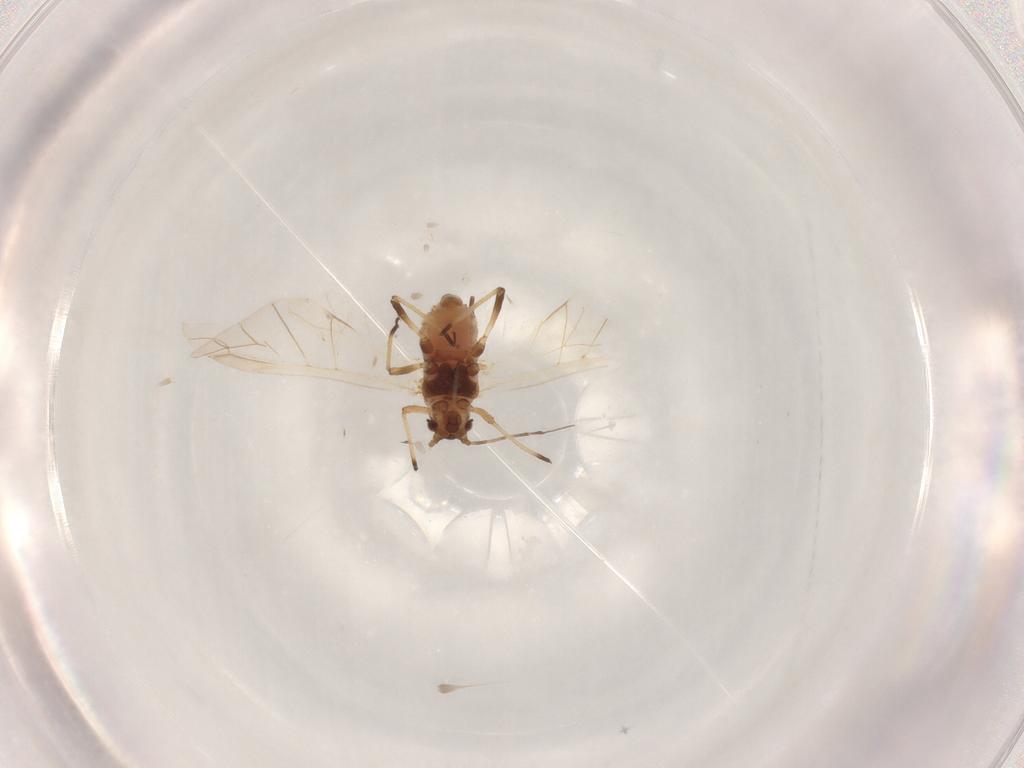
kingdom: Animalia
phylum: Arthropoda
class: Insecta
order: Hemiptera
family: Aphididae
